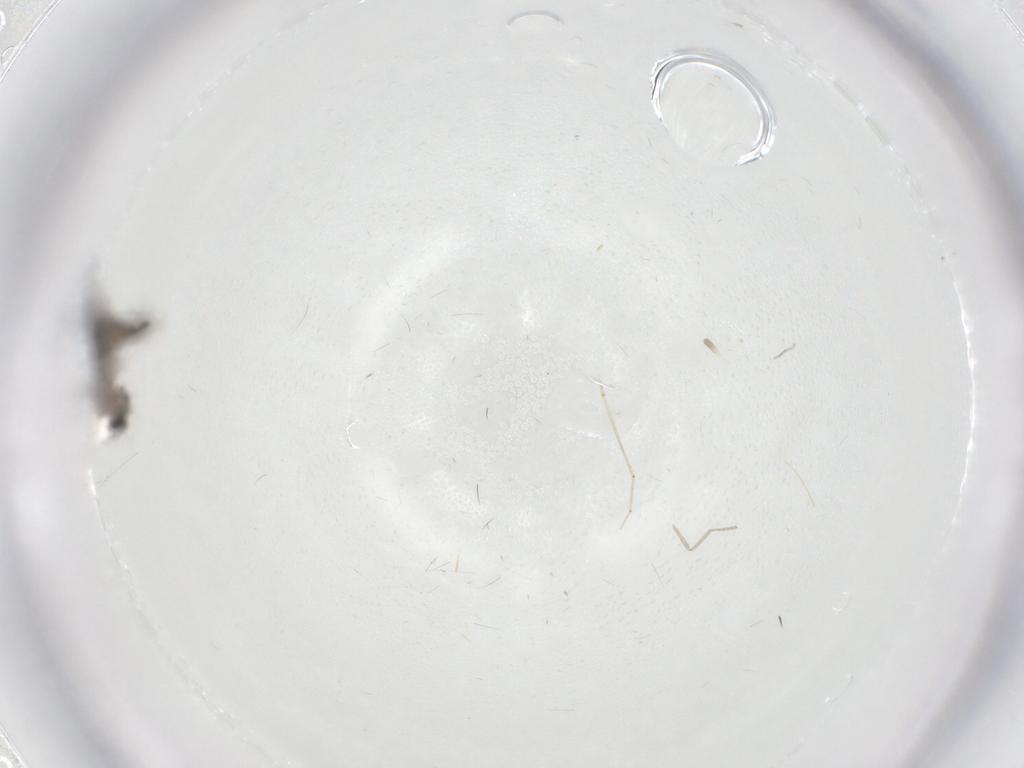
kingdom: Animalia
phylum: Arthropoda
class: Insecta
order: Diptera
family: Cecidomyiidae
